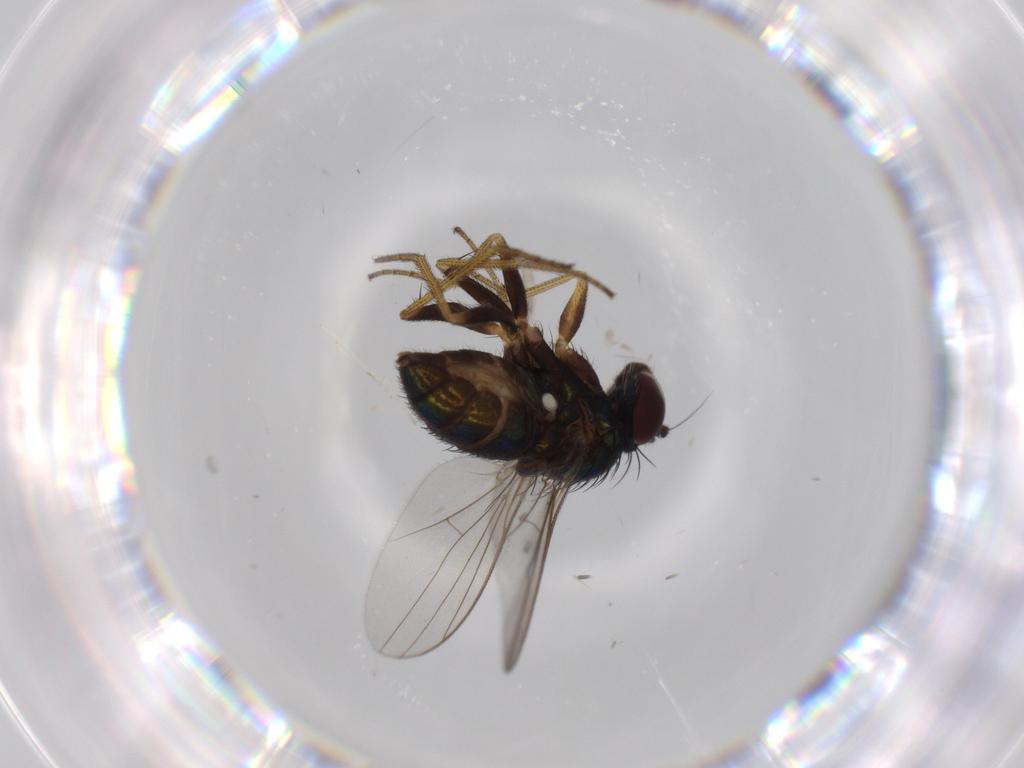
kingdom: Animalia
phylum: Arthropoda
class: Insecta
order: Diptera
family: Cecidomyiidae
